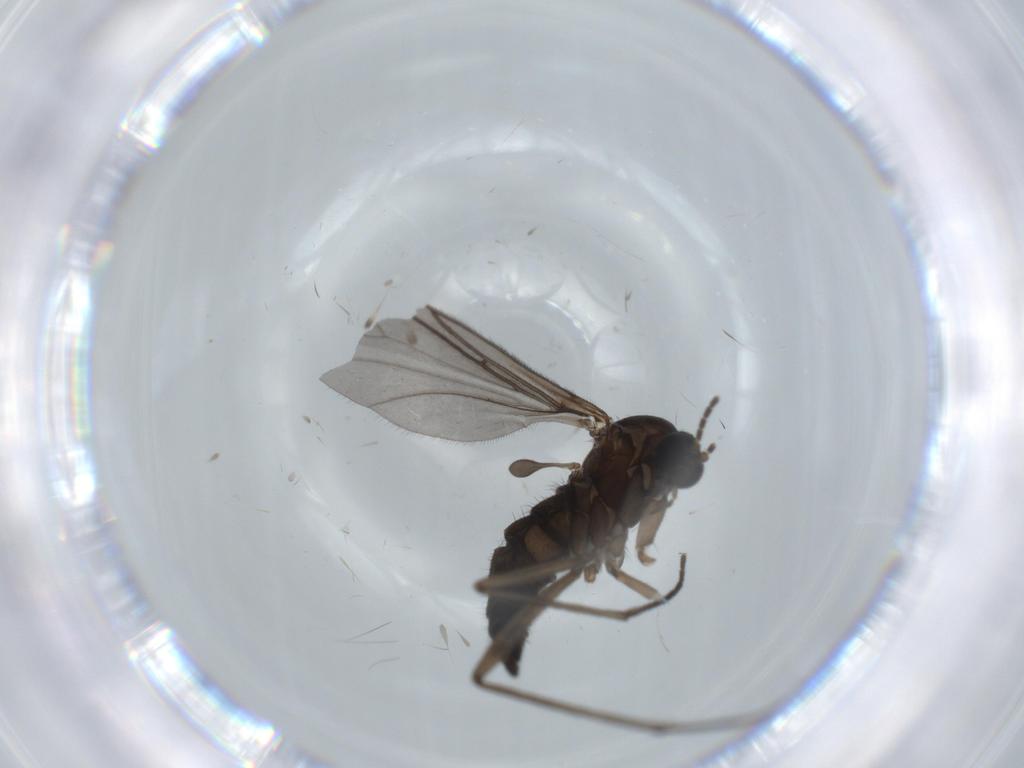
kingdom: Animalia
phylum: Arthropoda
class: Insecta
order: Diptera
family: Sciaridae
